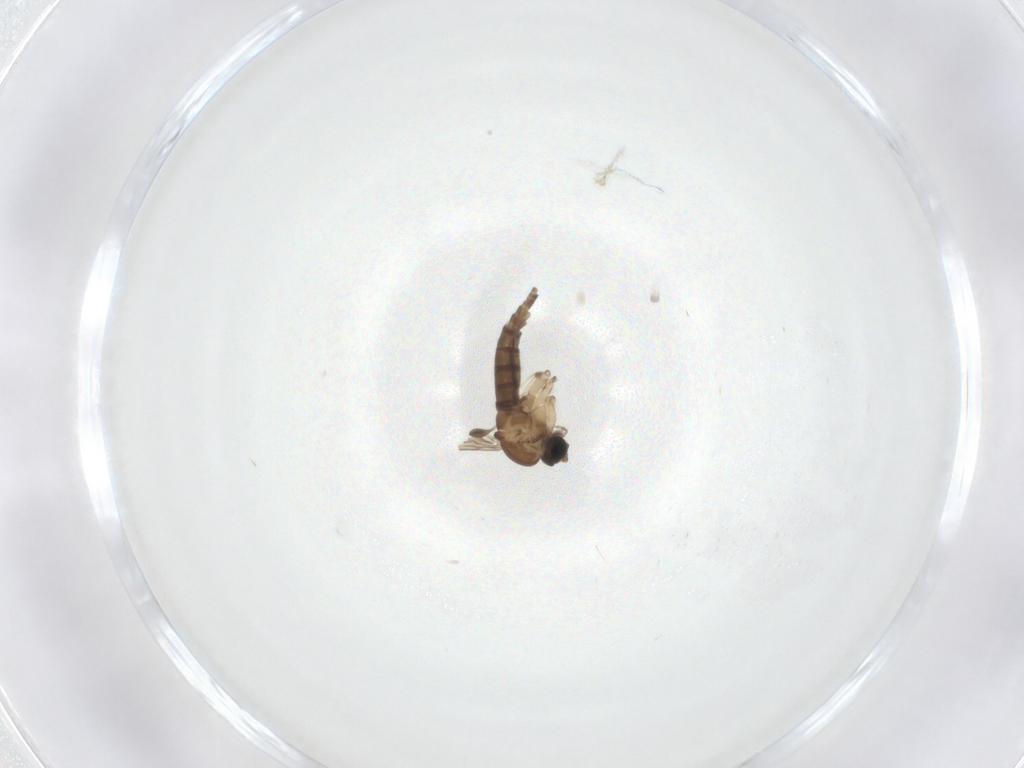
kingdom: Animalia
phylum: Arthropoda
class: Insecta
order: Diptera
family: Sciaridae
